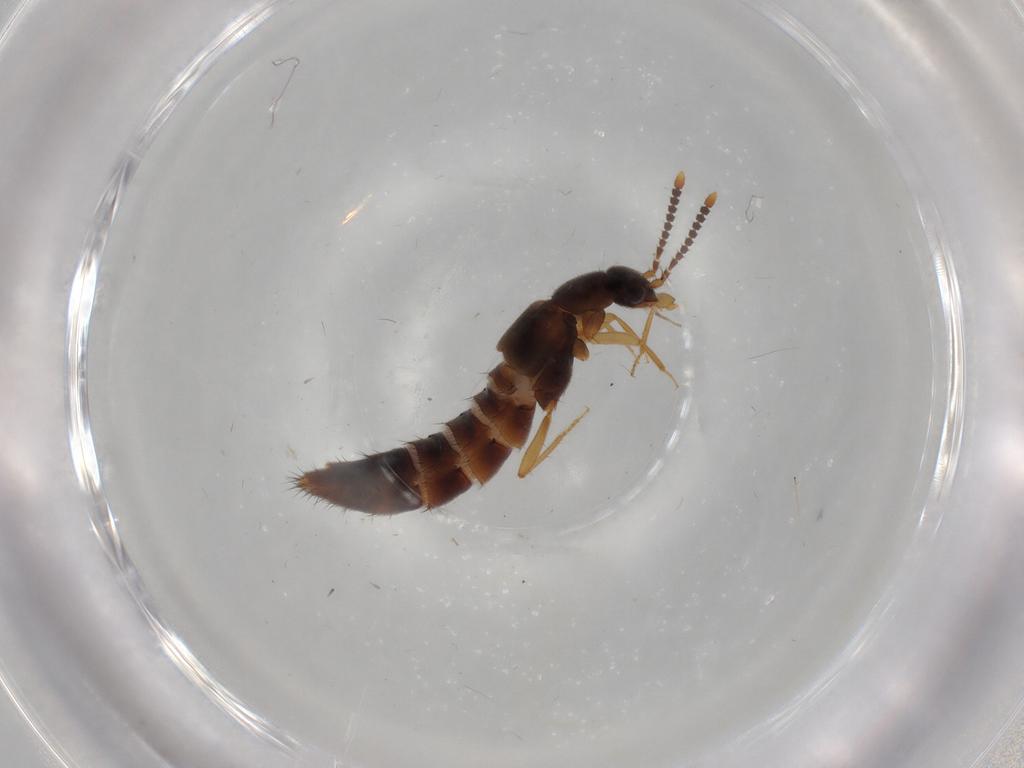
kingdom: Animalia
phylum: Arthropoda
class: Insecta
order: Coleoptera
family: Staphylinidae
